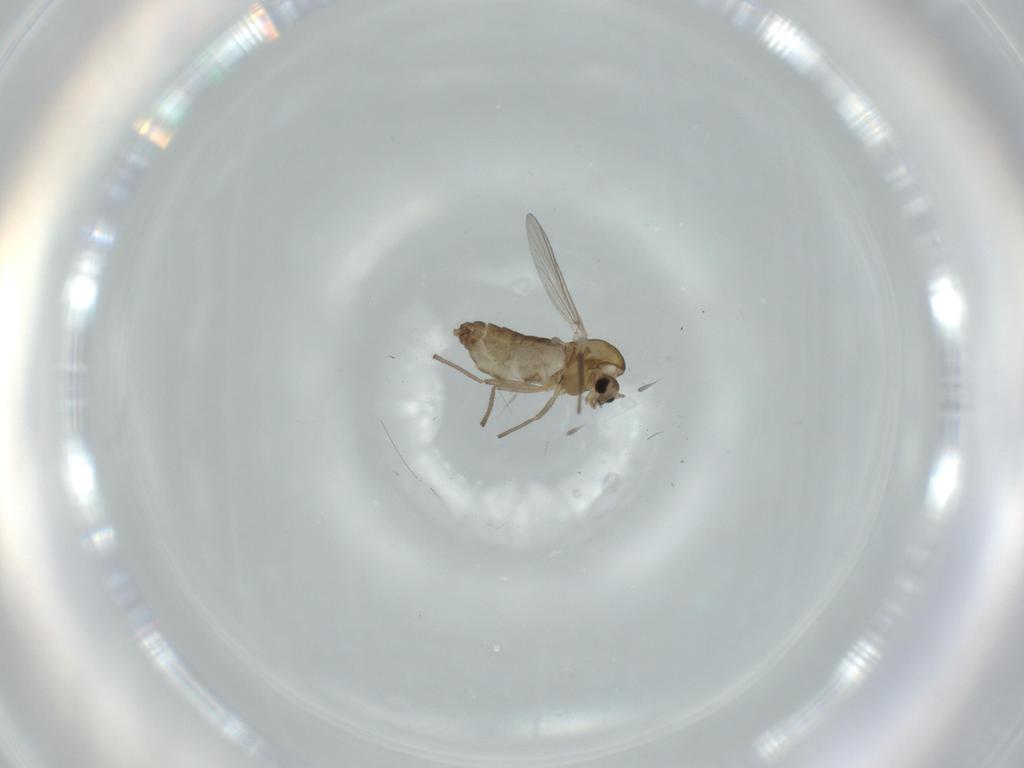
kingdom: Animalia
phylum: Arthropoda
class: Insecta
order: Diptera
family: Chironomidae
